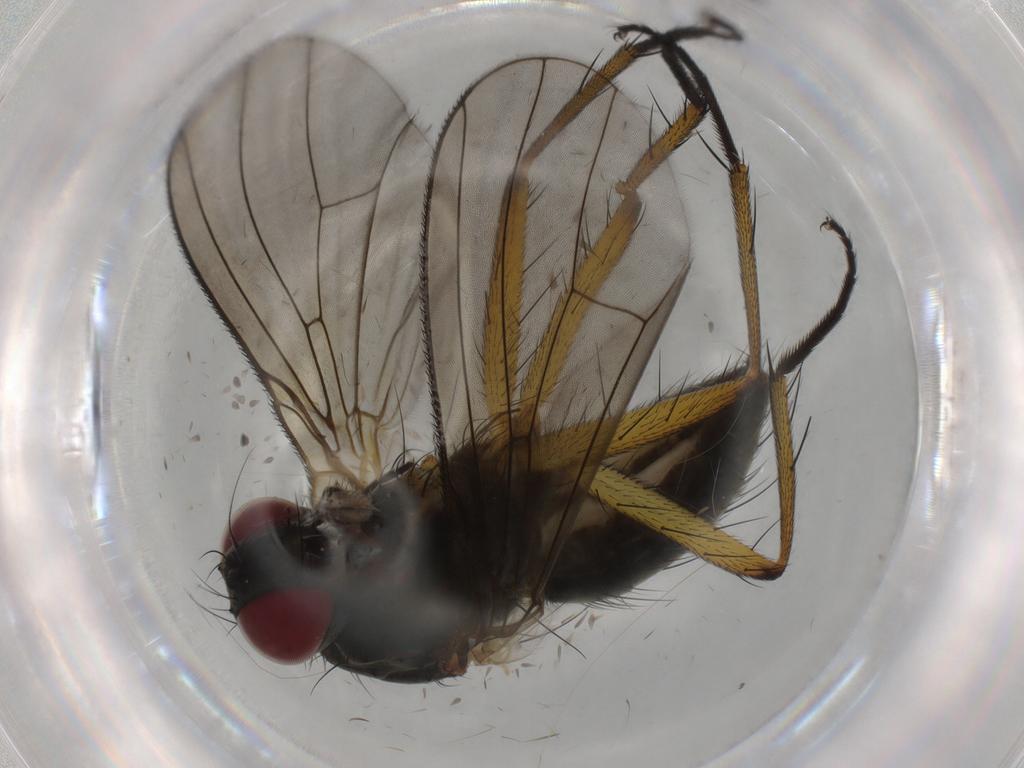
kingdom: Animalia
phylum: Arthropoda
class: Insecta
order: Diptera
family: Muscidae
